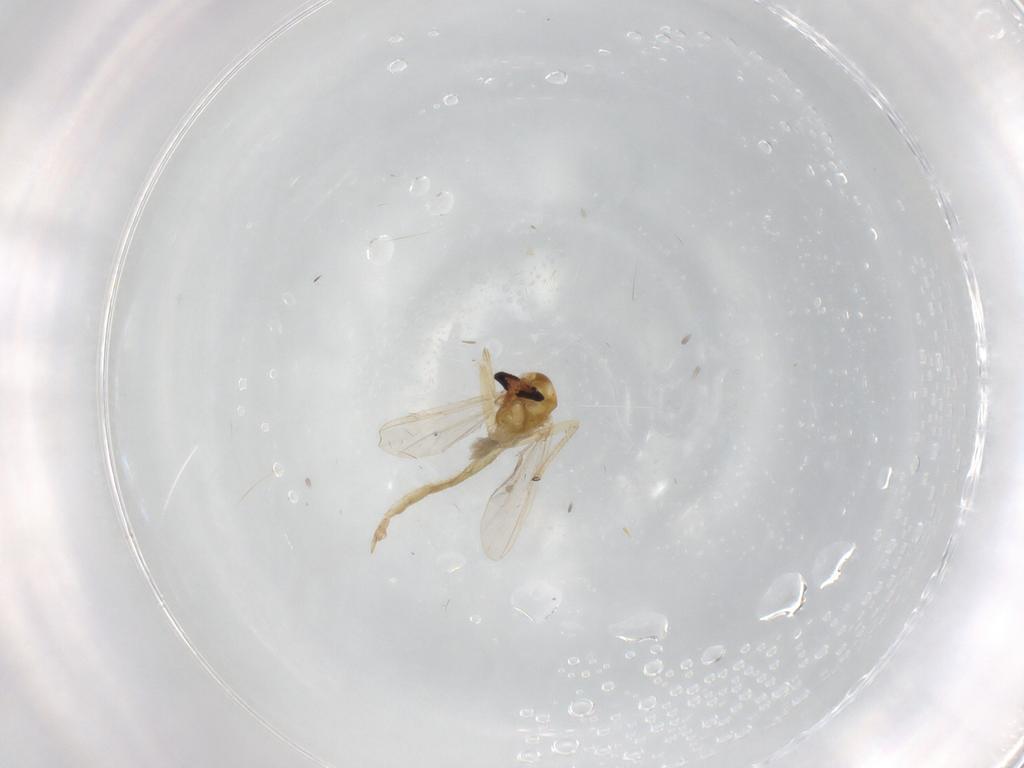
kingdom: Animalia
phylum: Arthropoda
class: Insecta
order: Diptera
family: Chironomidae
